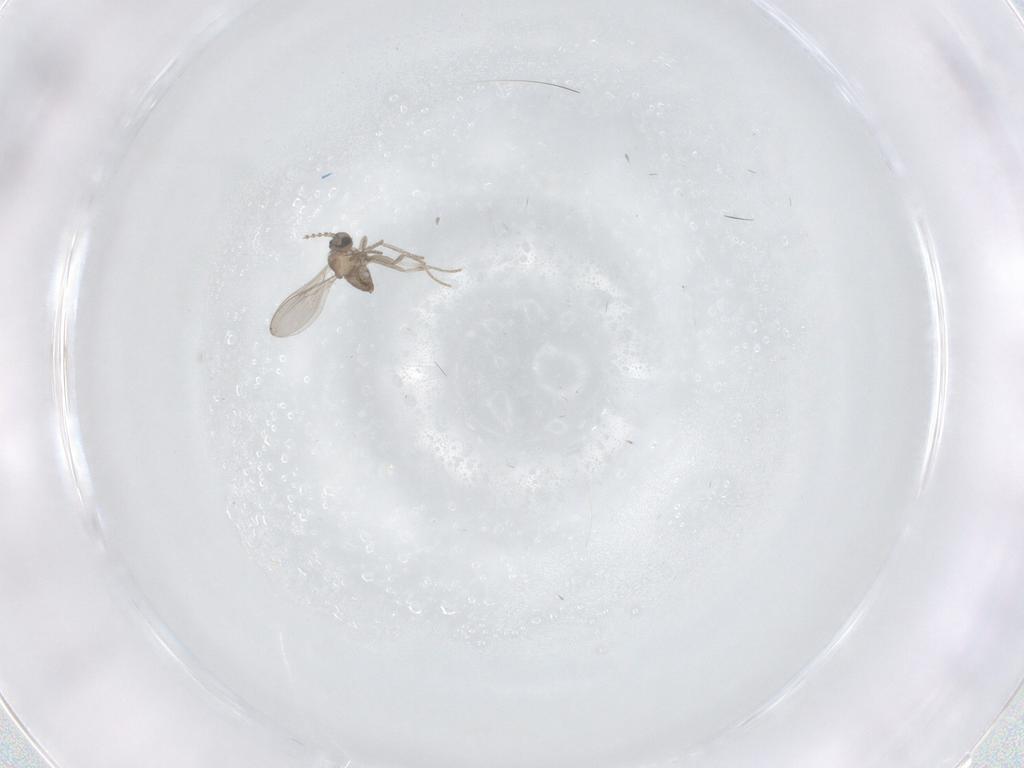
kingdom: Animalia
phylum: Arthropoda
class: Insecta
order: Diptera
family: Cecidomyiidae
